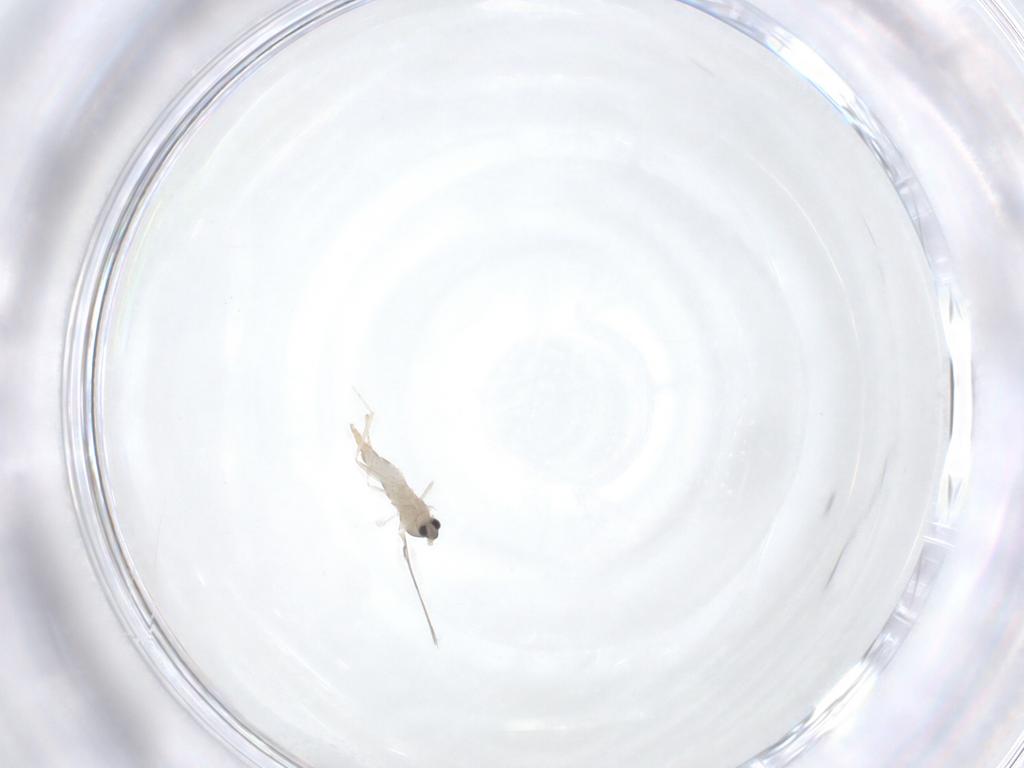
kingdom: Animalia
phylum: Arthropoda
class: Insecta
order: Diptera
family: Cecidomyiidae
